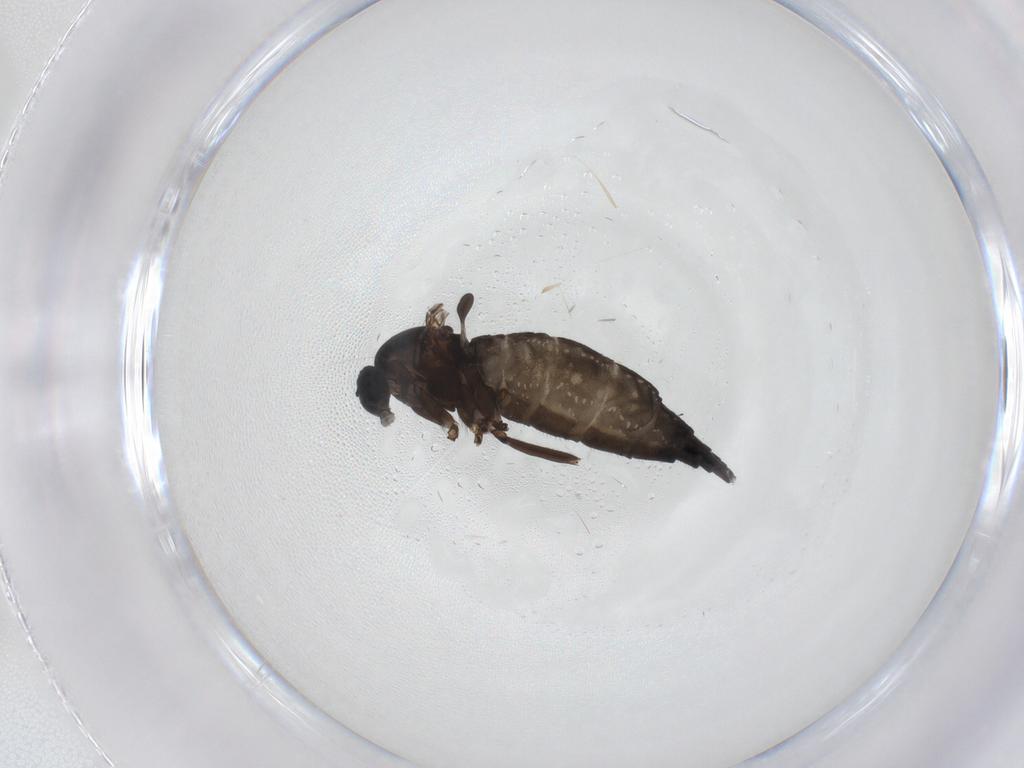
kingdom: Animalia
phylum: Arthropoda
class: Insecta
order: Diptera
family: Sciaridae
